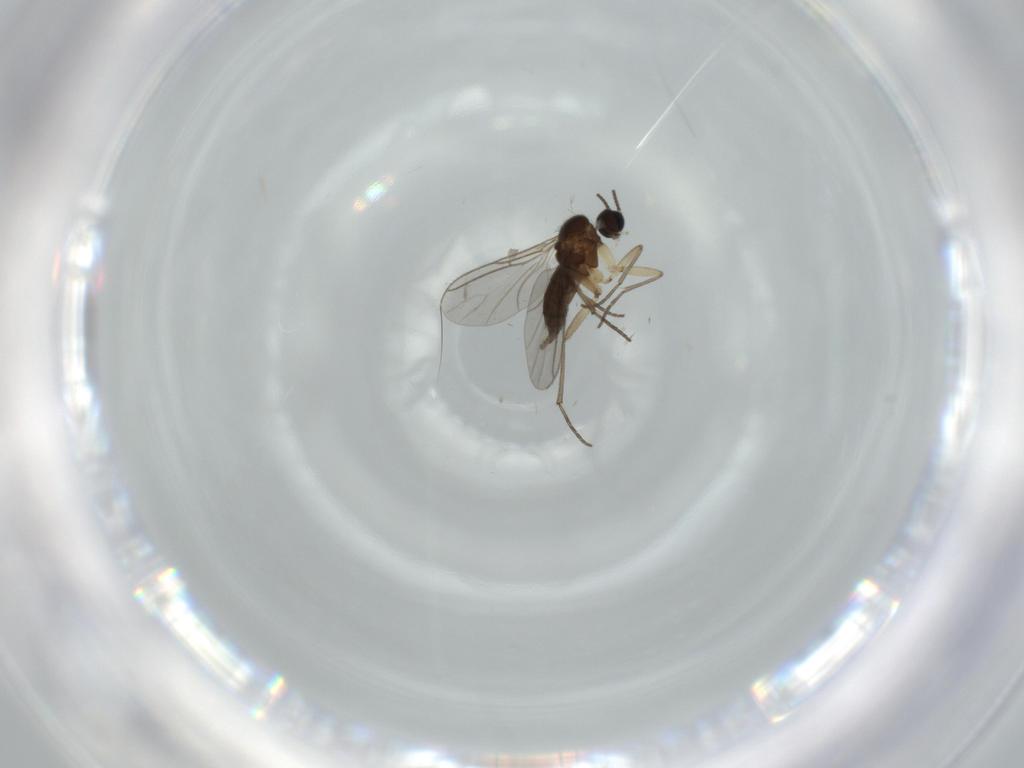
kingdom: Animalia
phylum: Arthropoda
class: Insecta
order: Diptera
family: Sciaridae
